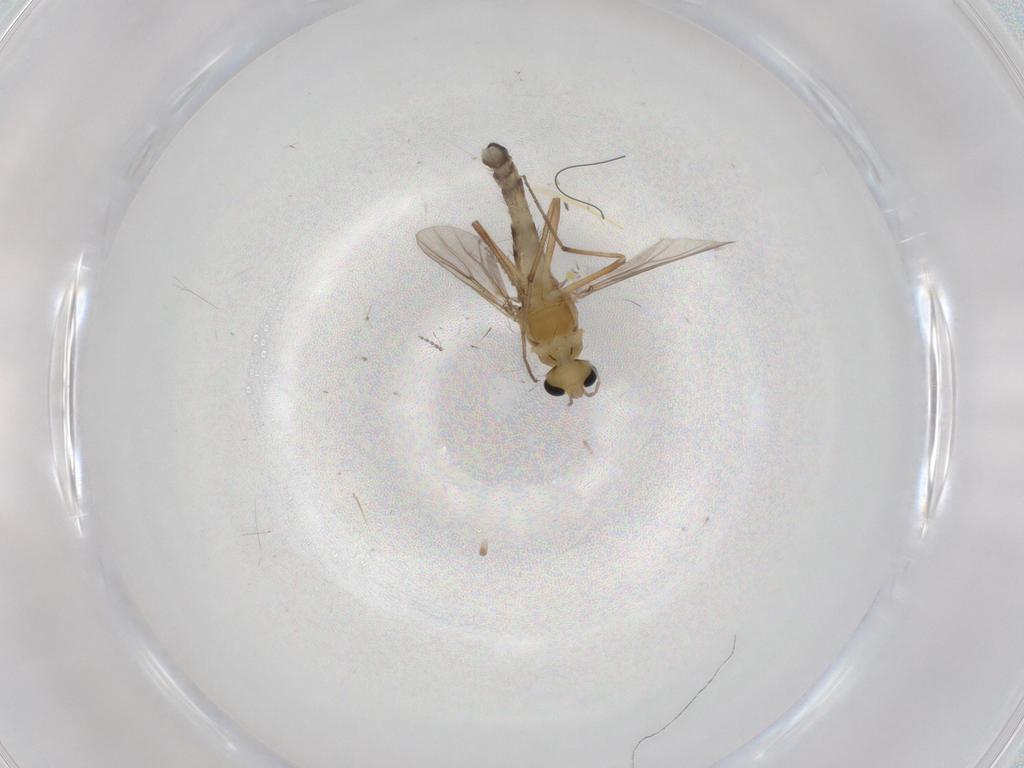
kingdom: Animalia
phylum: Arthropoda
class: Insecta
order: Diptera
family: Chironomidae
